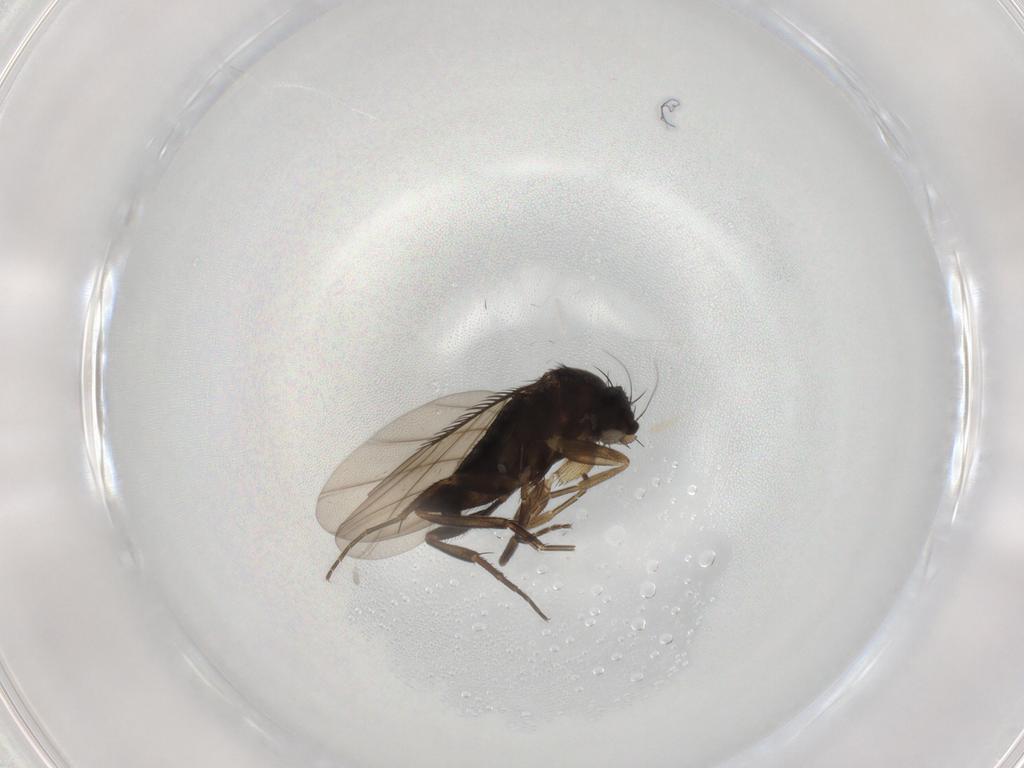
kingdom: Animalia
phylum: Arthropoda
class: Insecta
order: Diptera
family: Phoridae
